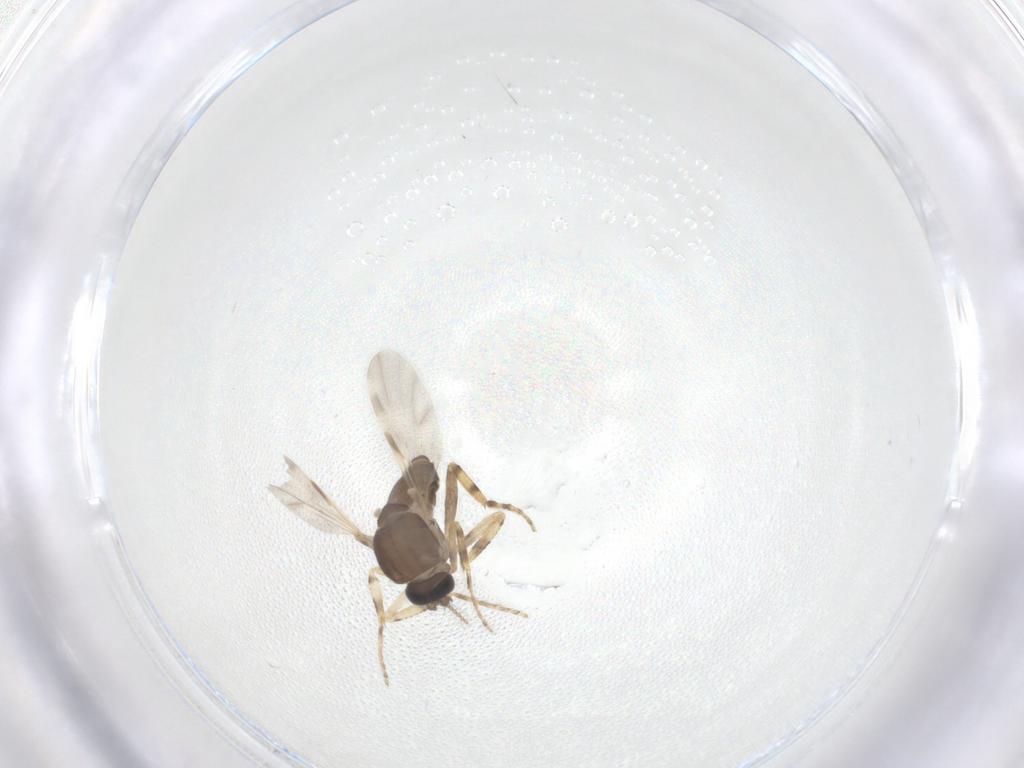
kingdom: Animalia
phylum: Arthropoda
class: Insecta
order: Diptera
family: Ceratopogonidae
